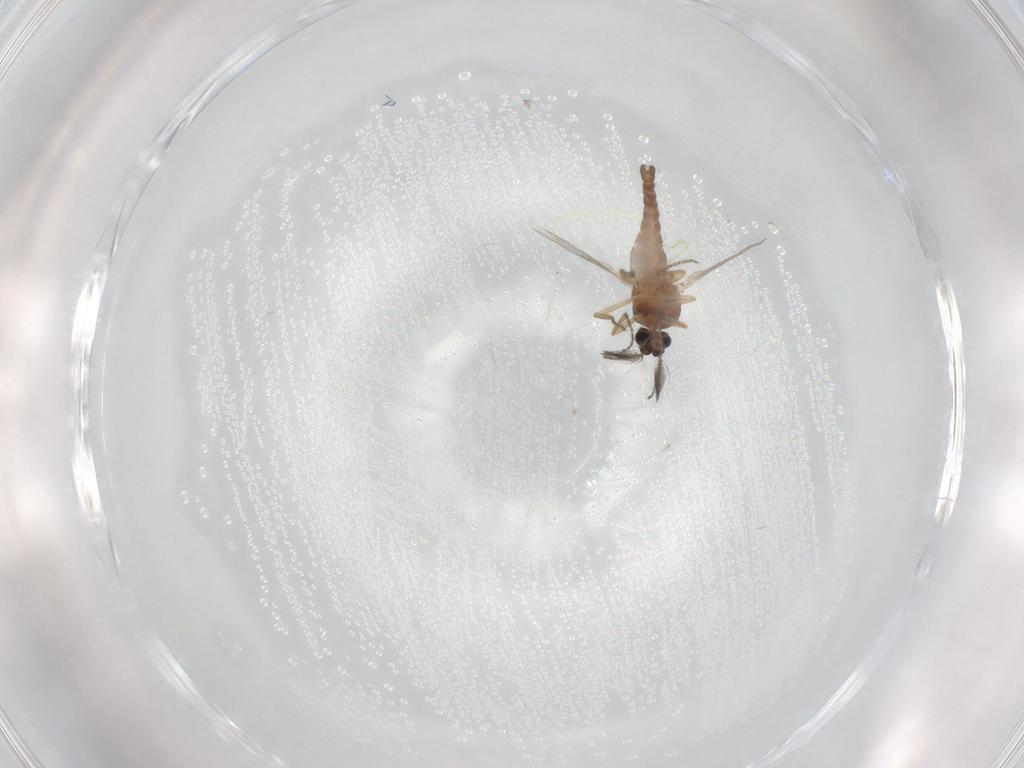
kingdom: Animalia
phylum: Arthropoda
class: Insecta
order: Diptera
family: Ceratopogonidae
